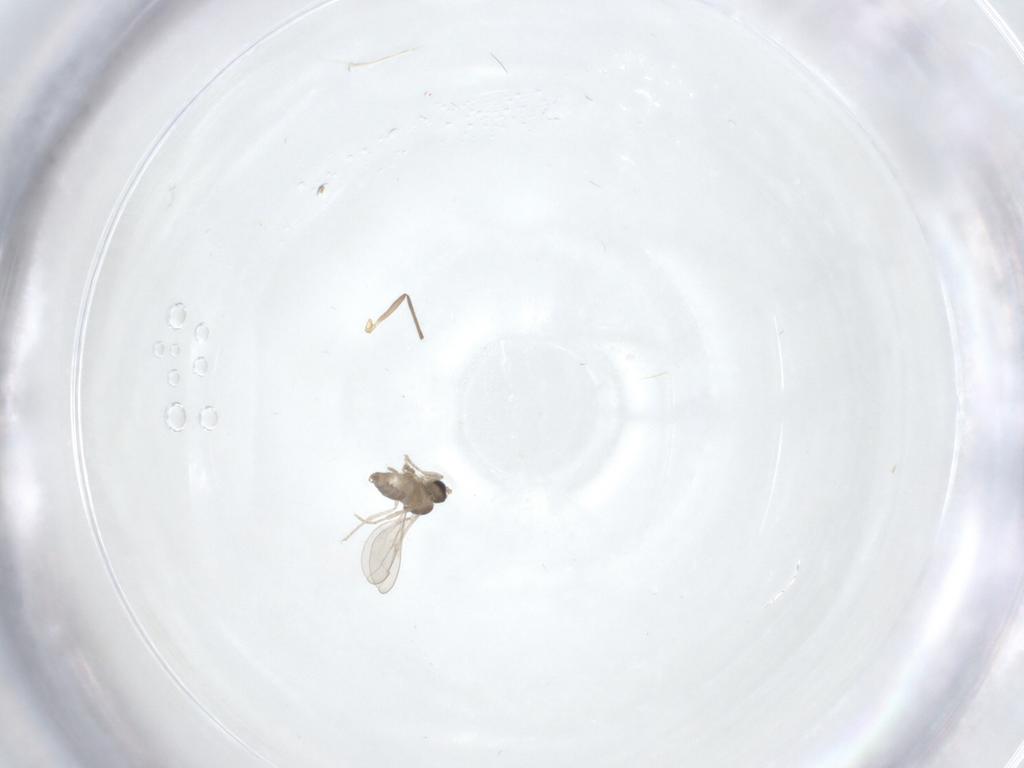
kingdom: Animalia
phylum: Arthropoda
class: Insecta
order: Diptera
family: Cecidomyiidae
